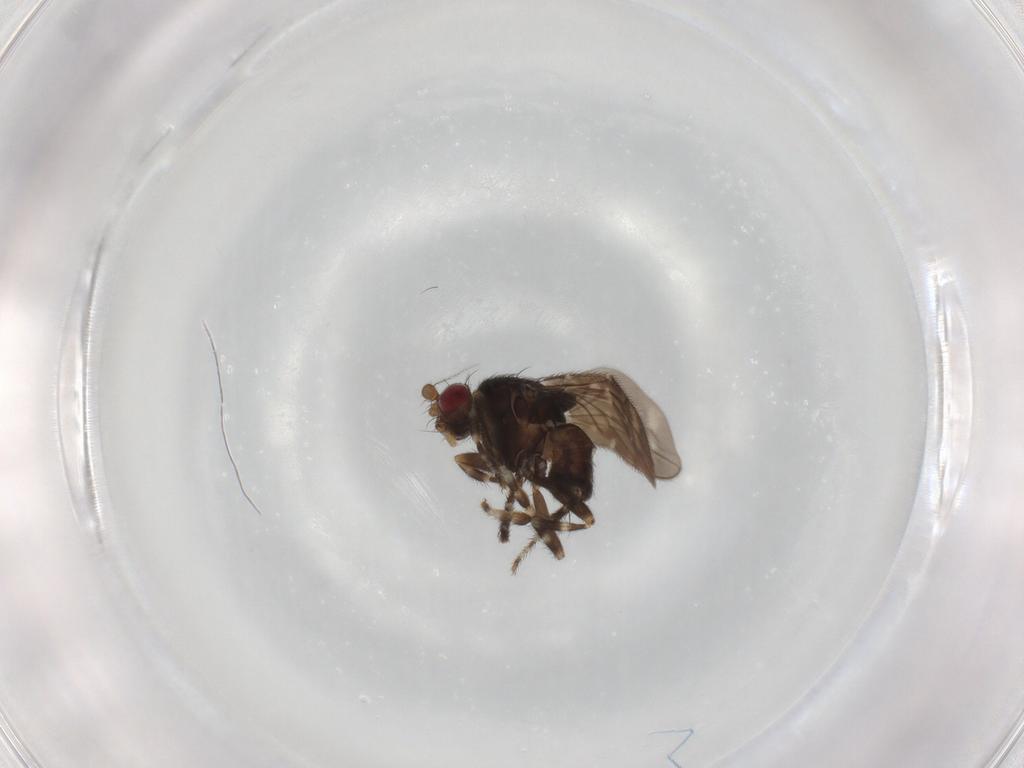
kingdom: Animalia
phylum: Arthropoda
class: Insecta
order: Diptera
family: Sphaeroceridae
